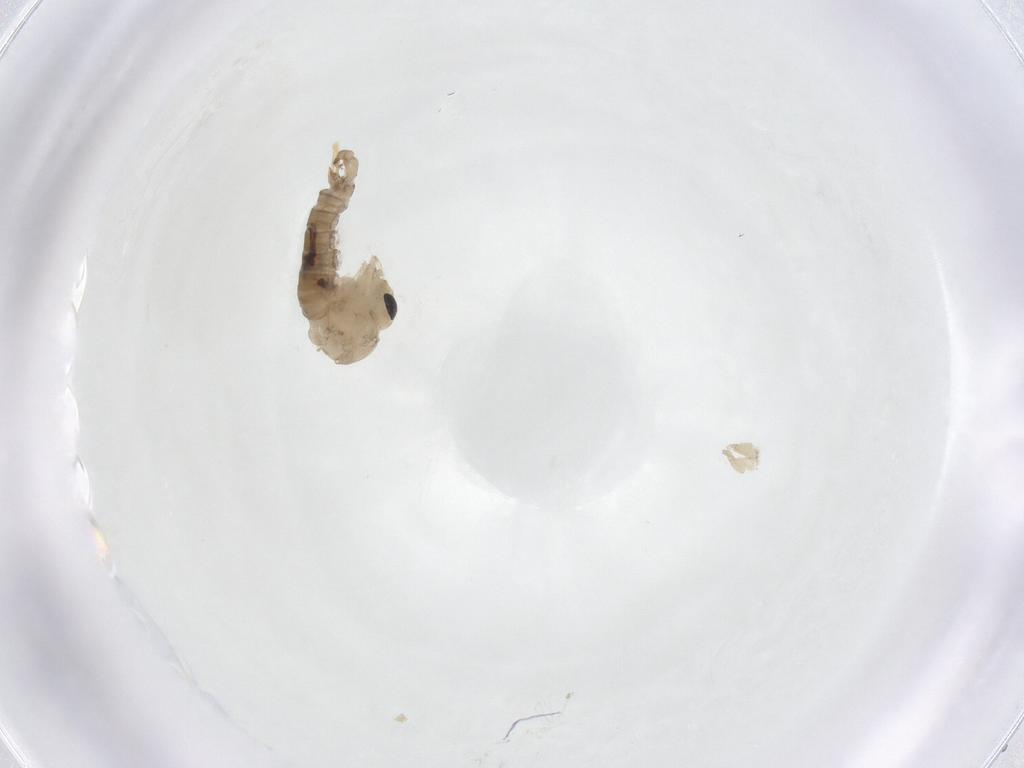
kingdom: Animalia
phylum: Arthropoda
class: Insecta
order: Diptera
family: Psychodidae
